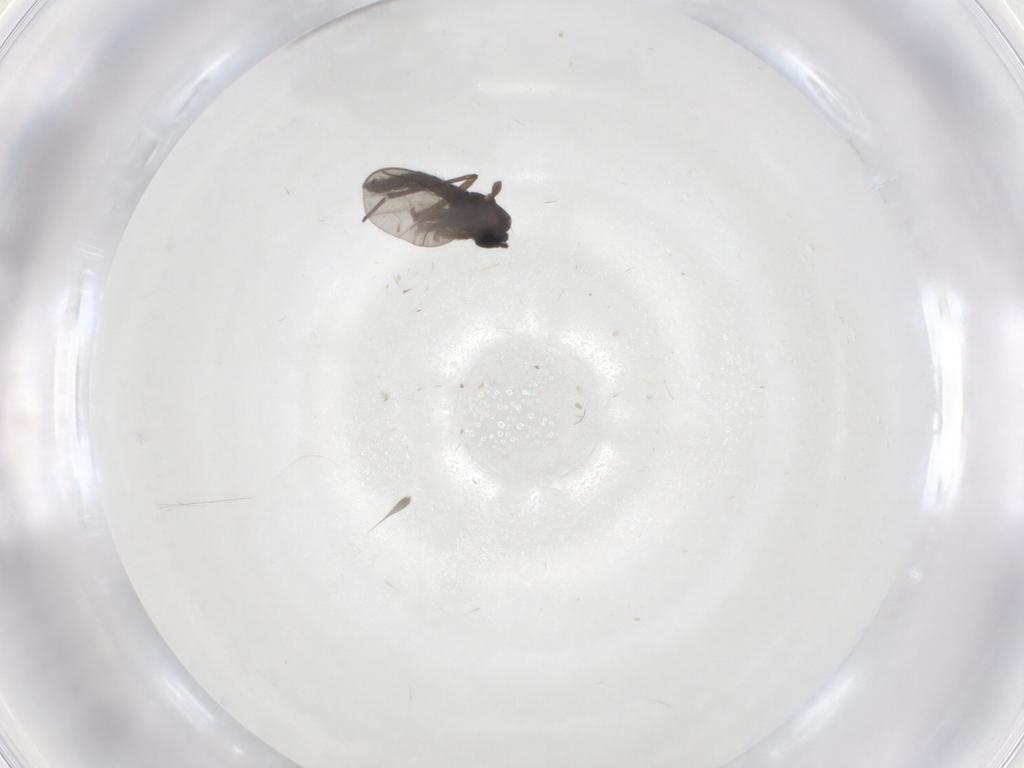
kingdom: Animalia
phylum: Arthropoda
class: Insecta
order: Diptera
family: Sciaridae
